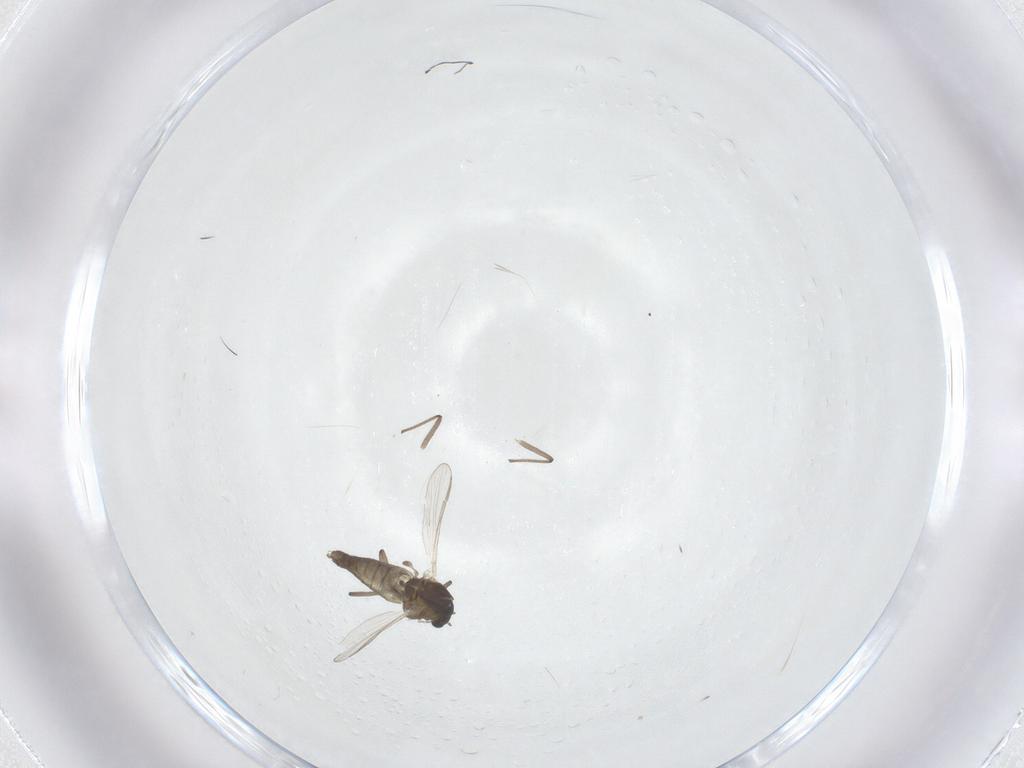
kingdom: Animalia
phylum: Arthropoda
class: Insecta
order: Diptera
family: Chironomidae
